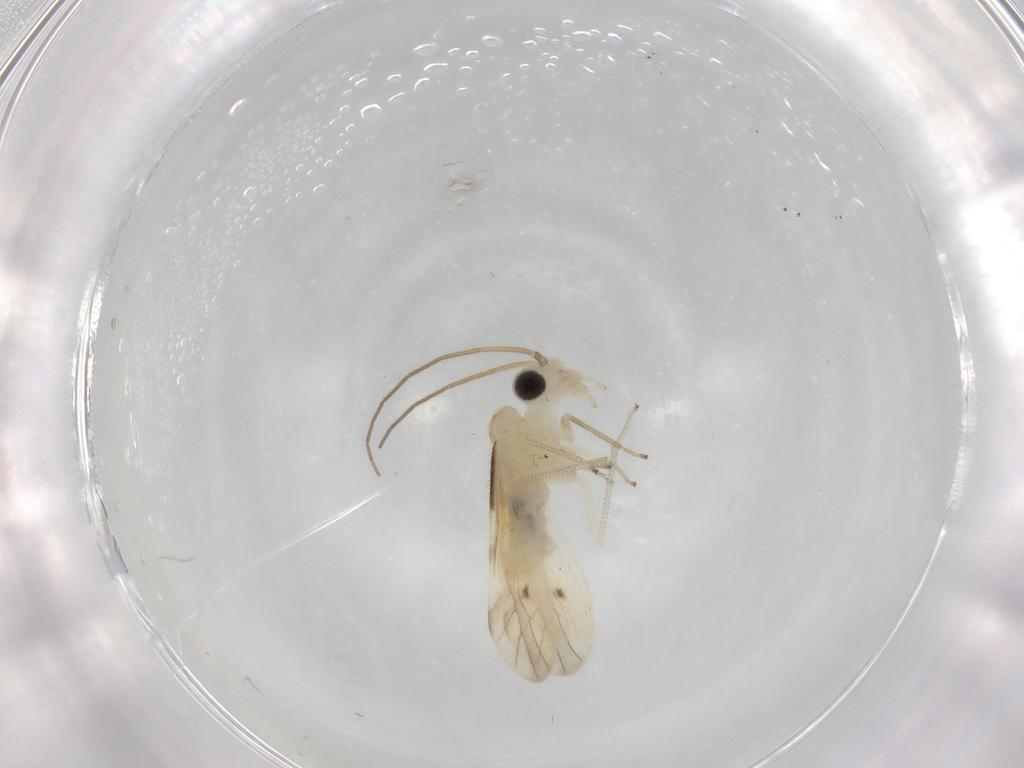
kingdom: Animalia
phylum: Arthropoda
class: Insecta
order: Psocodea
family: Caeciliusidae
